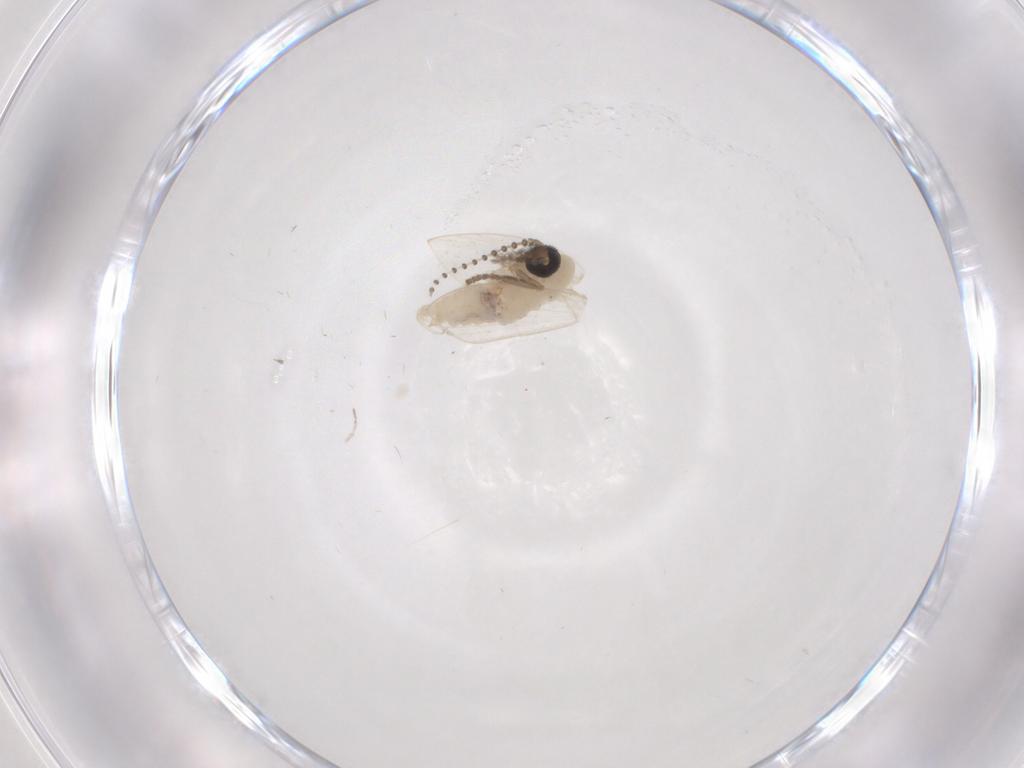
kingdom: Animalia
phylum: Arthropoda
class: Insecta
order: Diptera
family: Psychodidae
